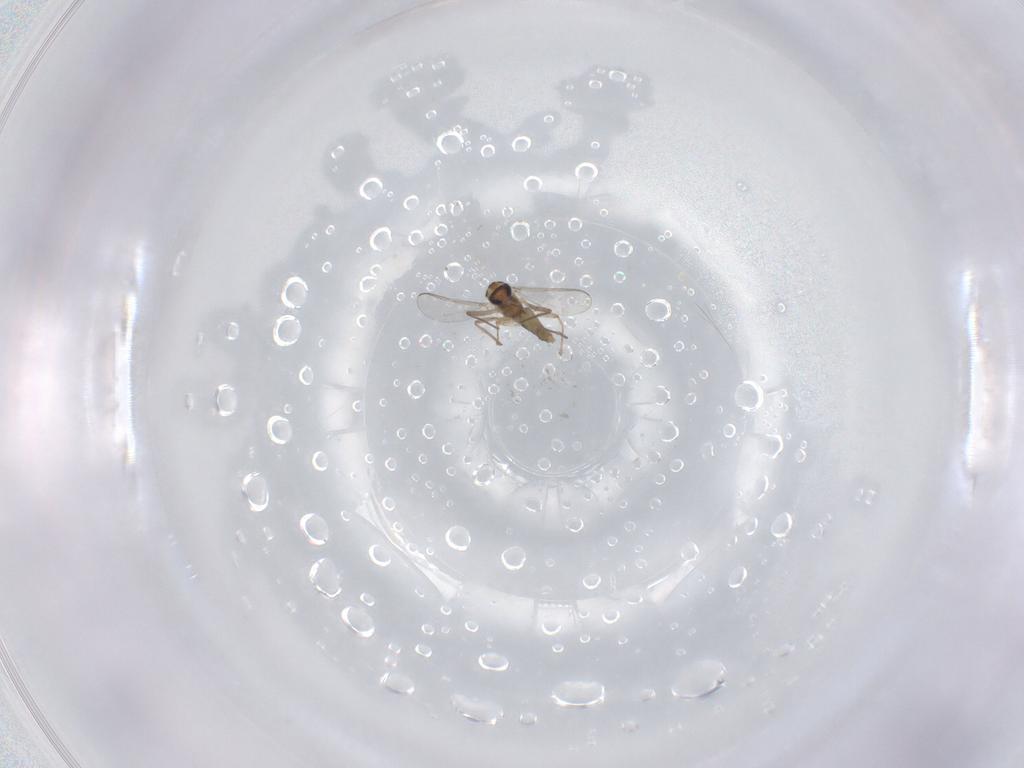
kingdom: Animalia
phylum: Arthropoda
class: Insecta
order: Diptera
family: Chironomidae
